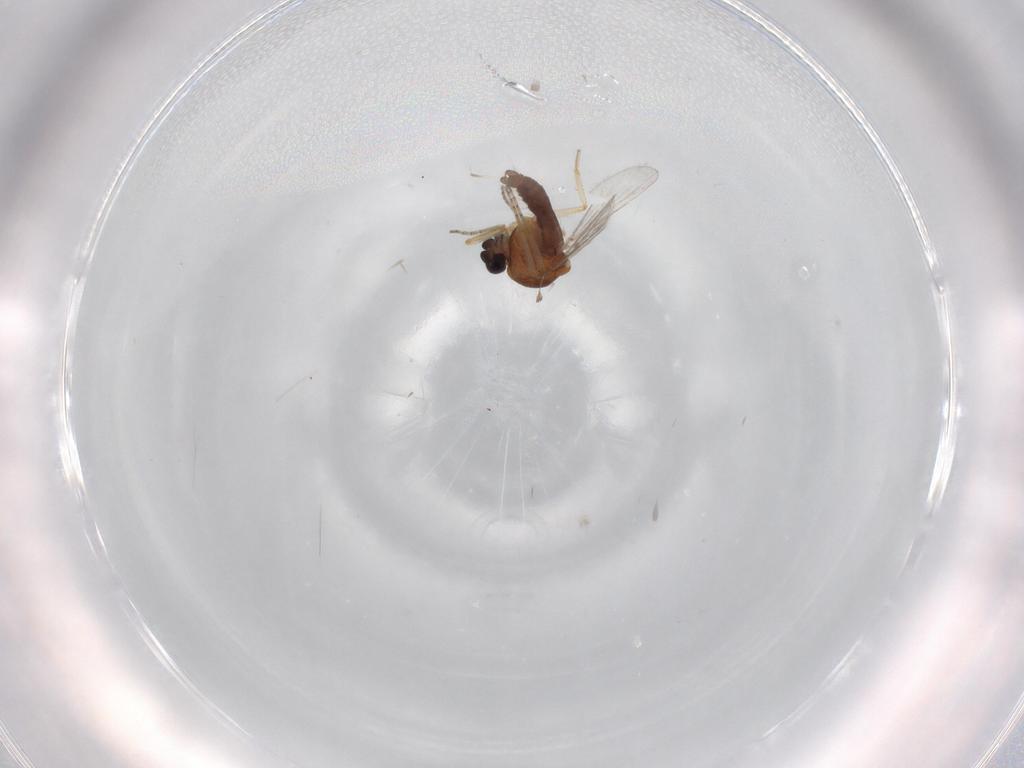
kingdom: Animalia
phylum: Arthropoda
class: Insecta
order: Diptera
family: Ceratopogonidae
